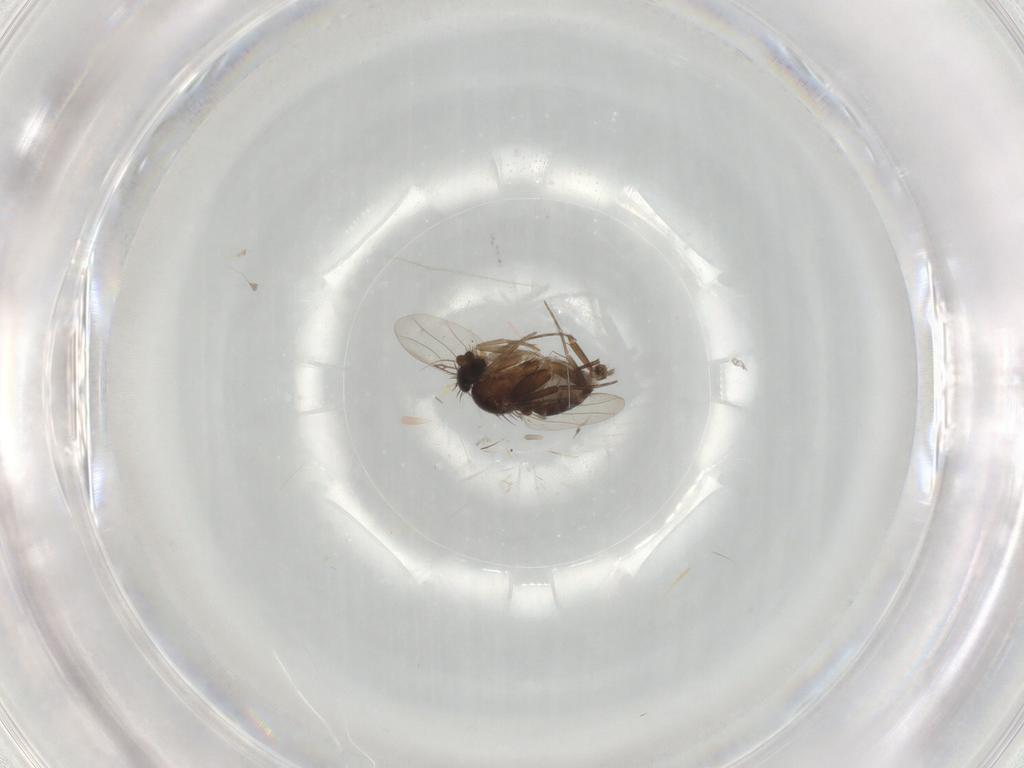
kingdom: Animalia
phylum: Arthropoda
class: Insecta
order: Diptera
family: Phoridae
